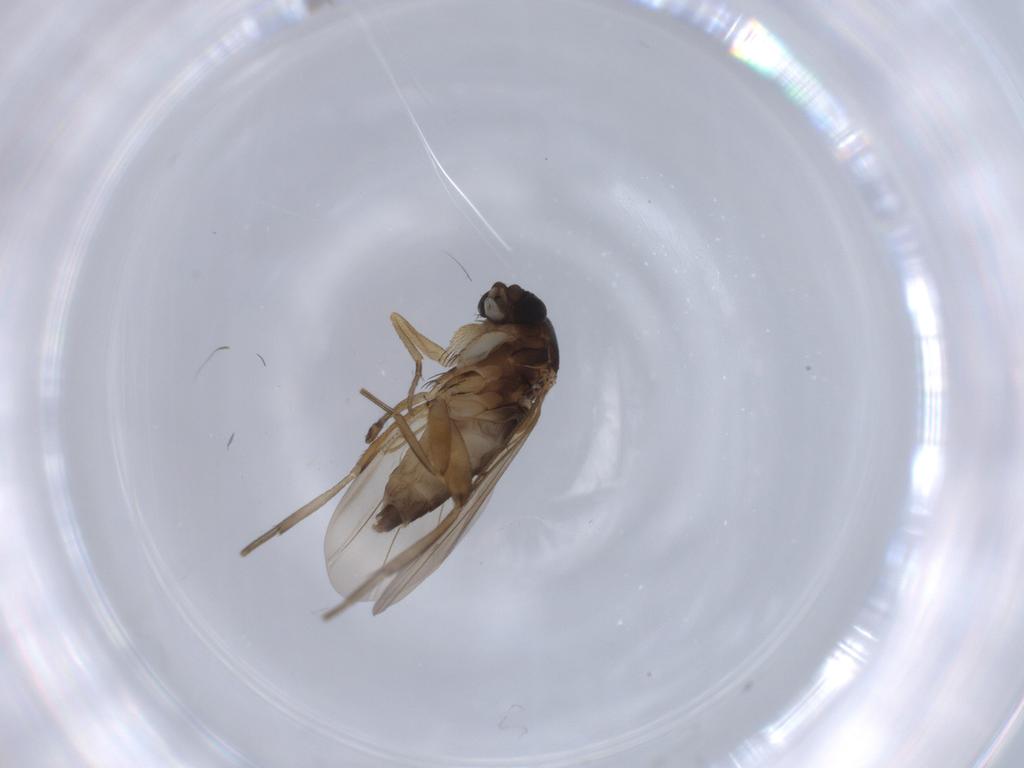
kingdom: Animalia
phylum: Arthropoda
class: Insecta
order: Diptera
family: Phoridae
